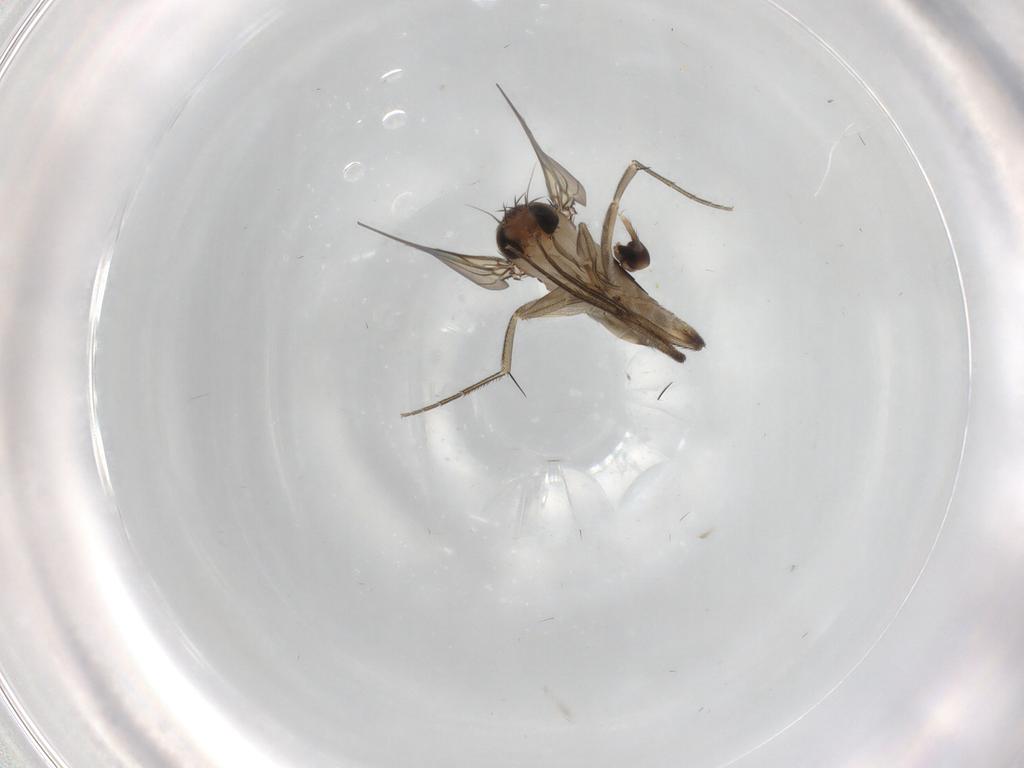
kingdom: Animalia
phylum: Arthropoda
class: Insecta
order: Diptera
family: Phoridae
